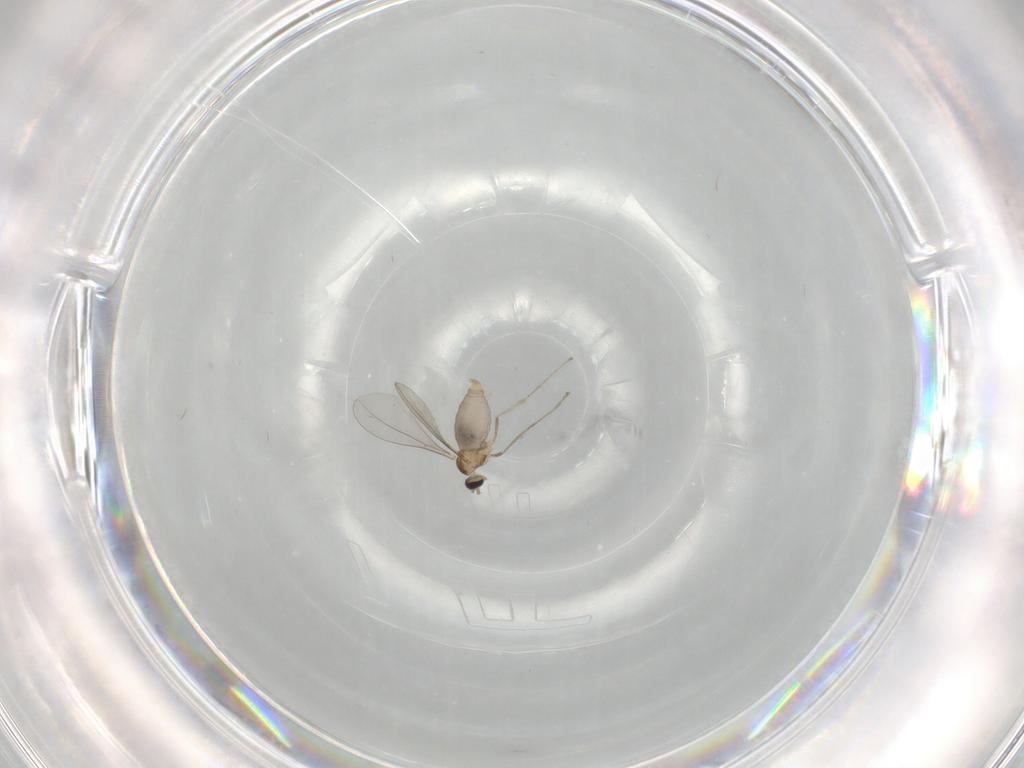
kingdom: Animalia
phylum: Arthropoda
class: Insecta
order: Diptera
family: Cecidomyiidae
